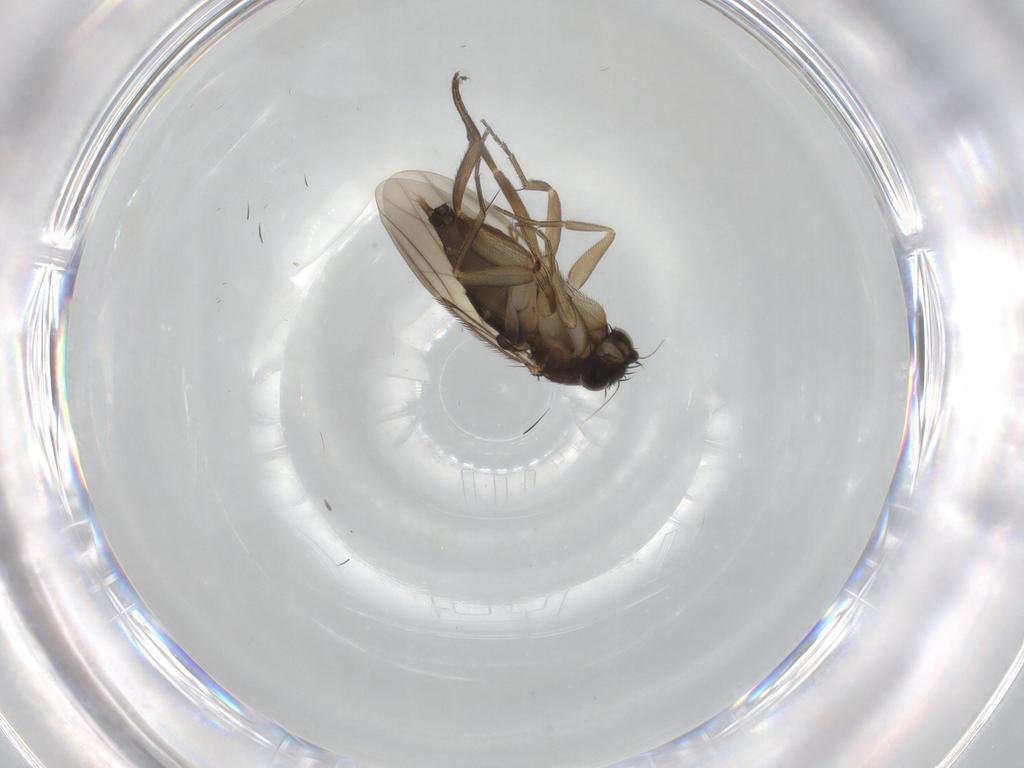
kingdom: Animalia
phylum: Arthropoda
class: Insecta
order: Diptera
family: Phoridae
